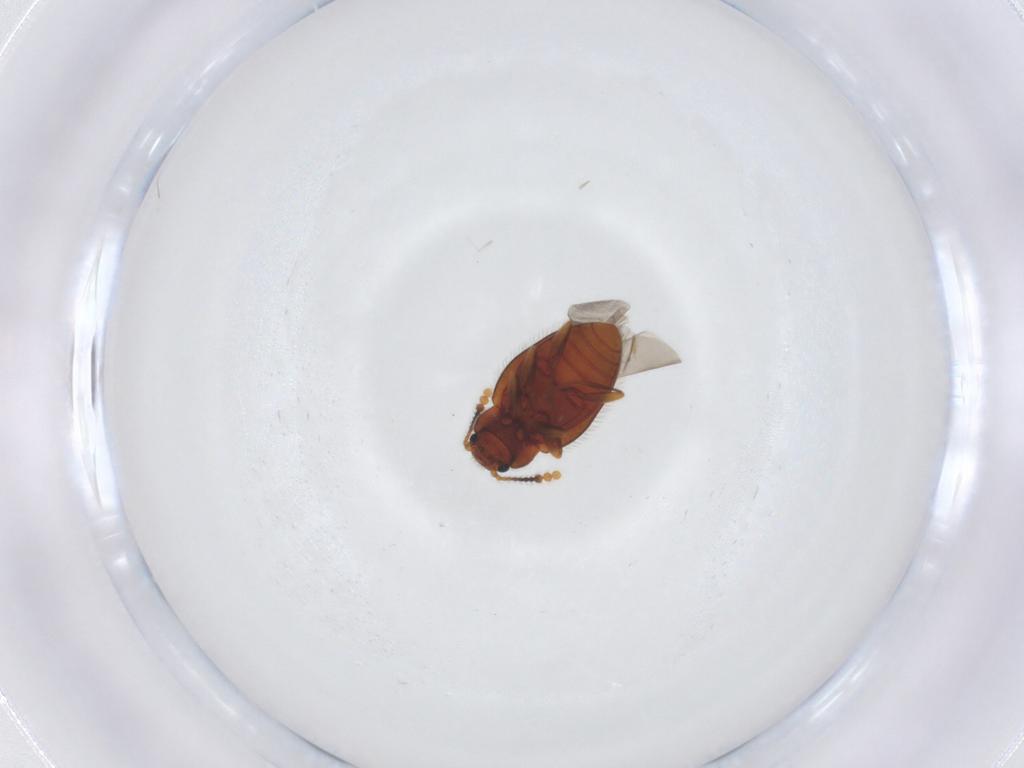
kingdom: Animalia
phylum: Arthropoda
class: Insecta
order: Coleoptera
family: Erotylidae
